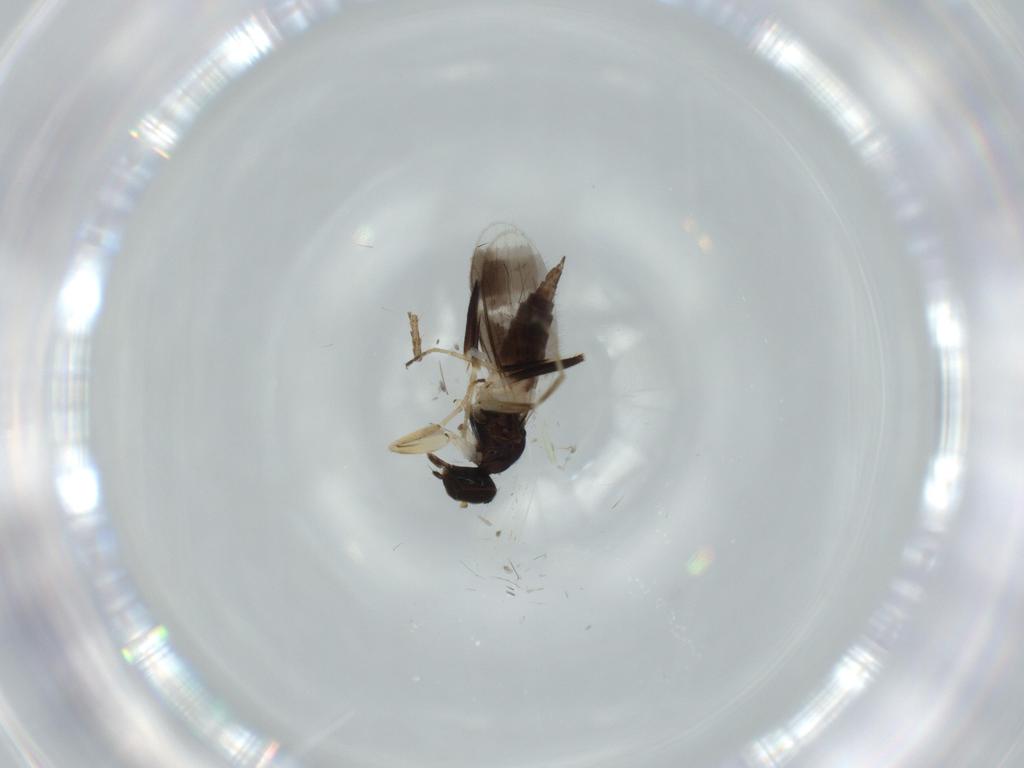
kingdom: Animalia
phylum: Arthropoda
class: Insecta
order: Diptera
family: Hybotidae
